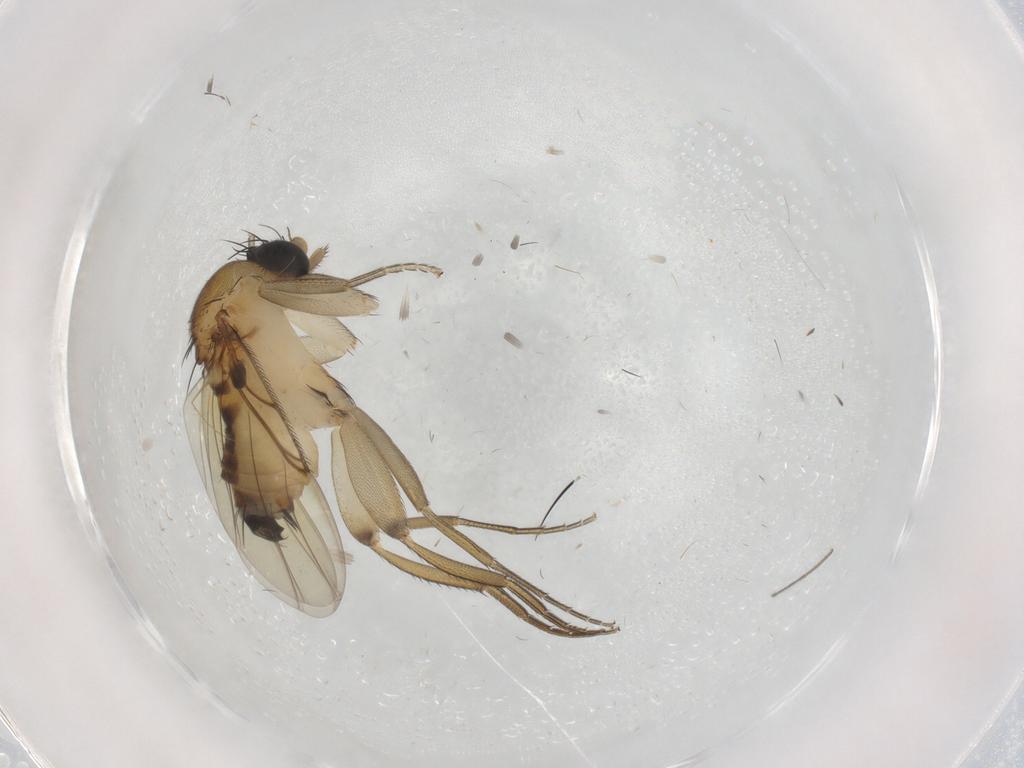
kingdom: Animalia
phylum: Arthropoda
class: Insecta
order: Diptera
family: Phoridae
